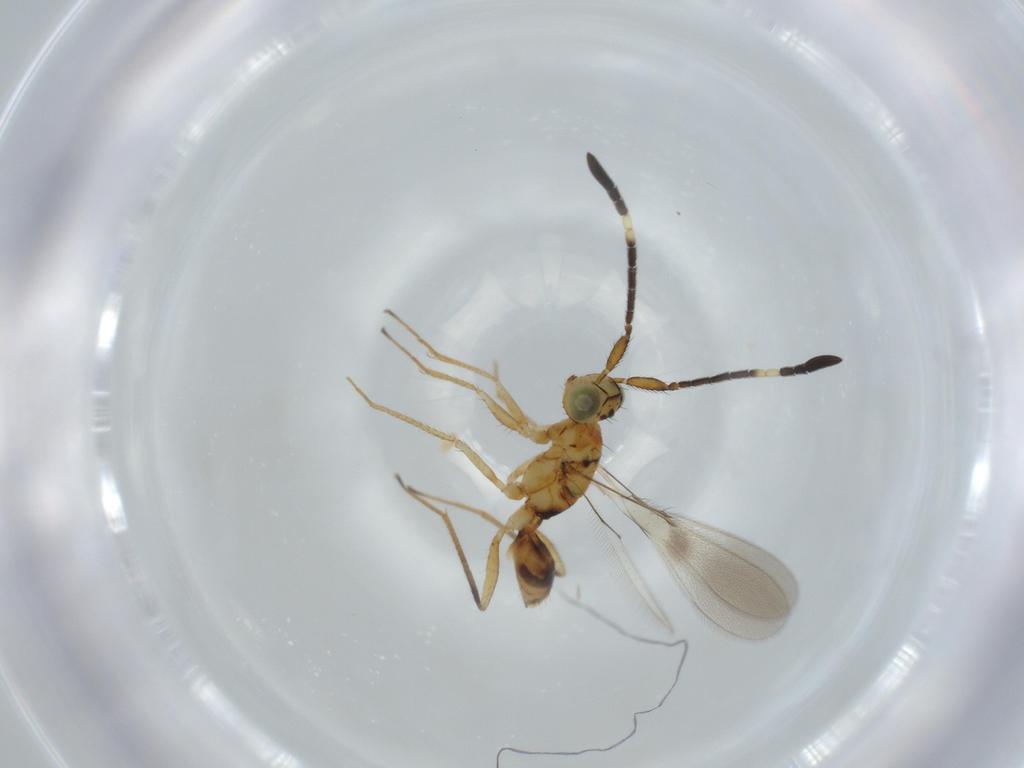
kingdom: Animalia
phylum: Arthropoda
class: Insecta
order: Hymenoptera
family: Mymaridae
